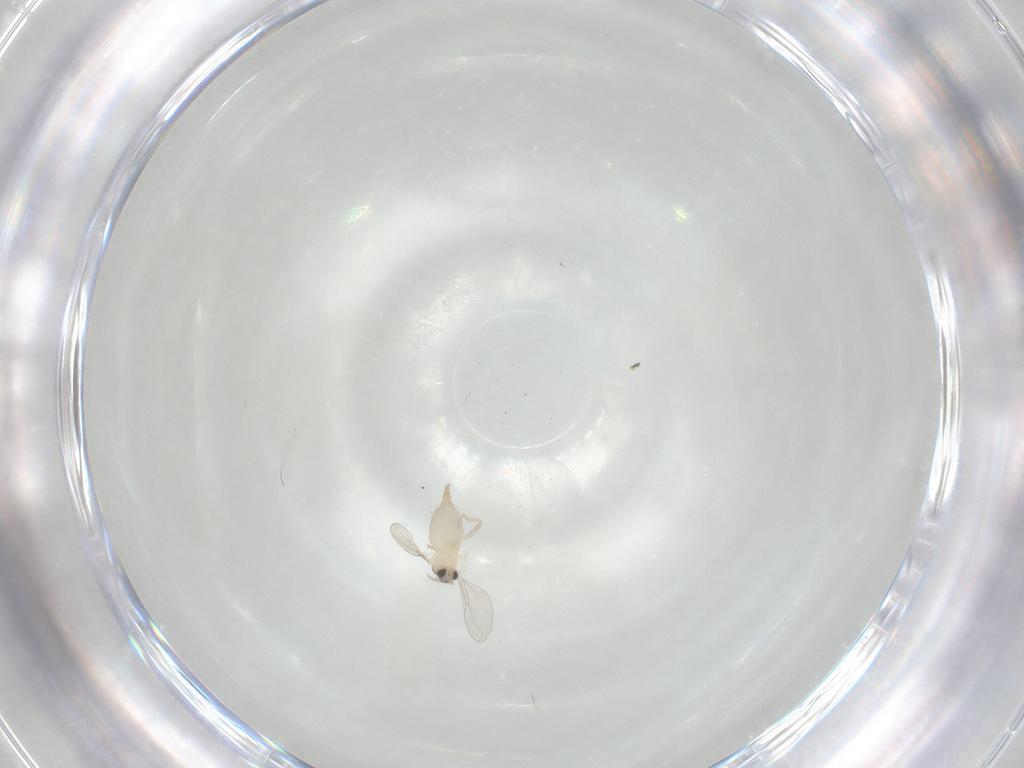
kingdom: Animalia
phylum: Arthropoda
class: Insecta
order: Diptera
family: Cecidomyiidae
